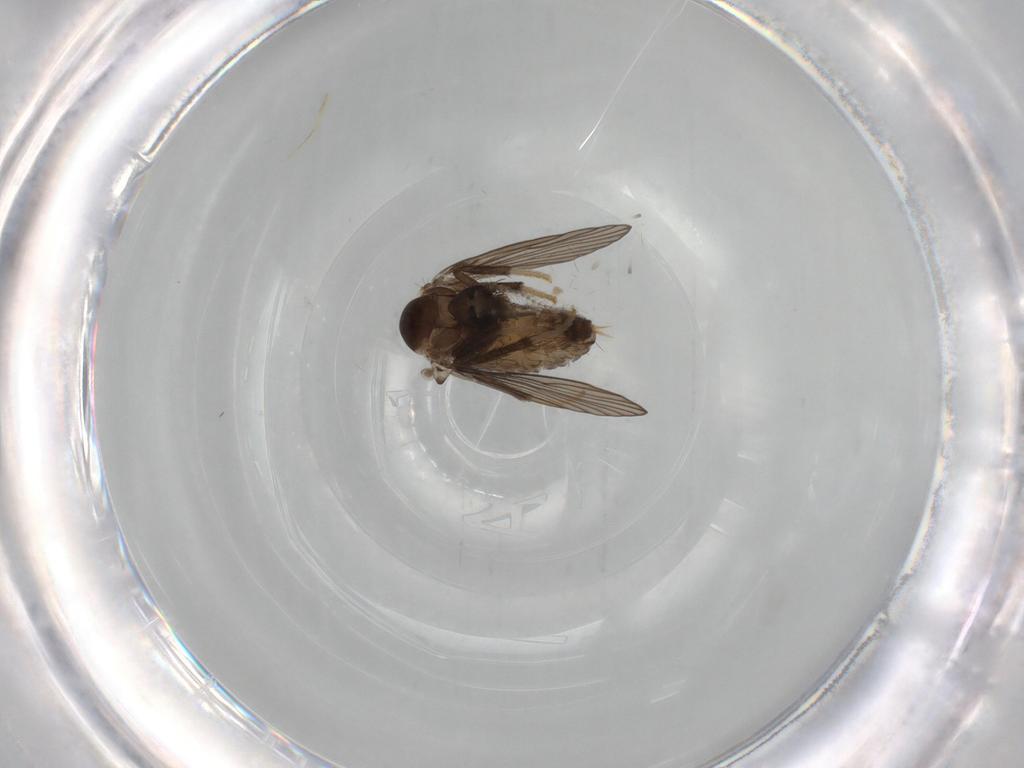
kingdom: Animalia
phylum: Arthropoda
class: Insecta
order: Diptera
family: Psychodidae
